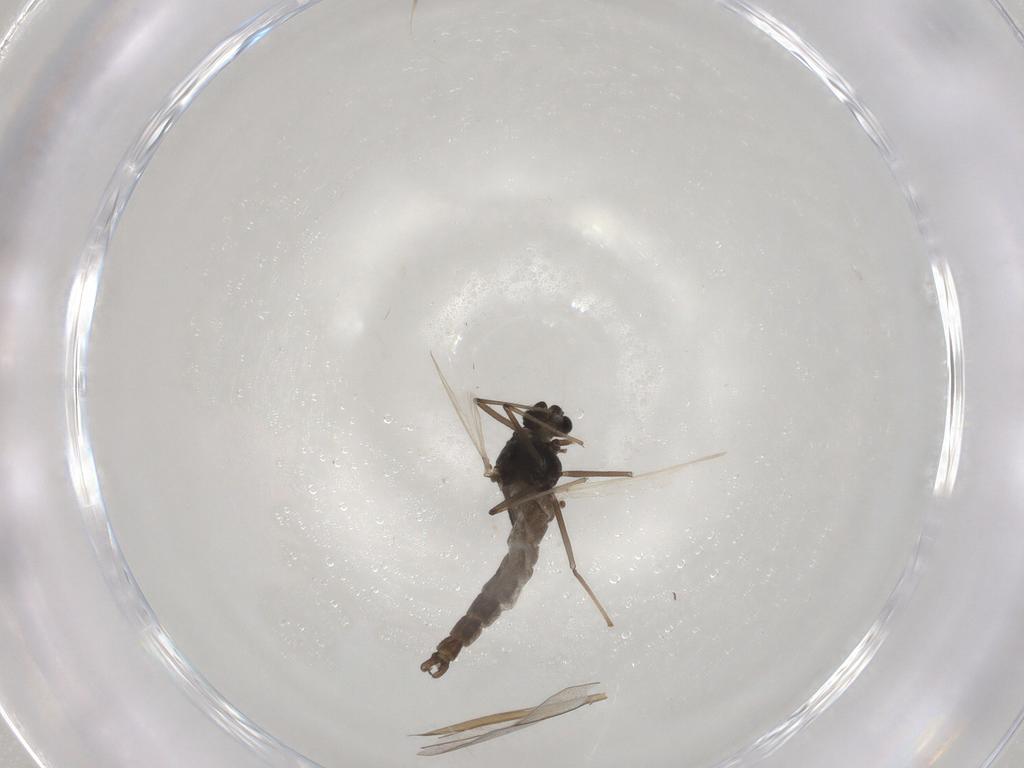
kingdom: Animalia
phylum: Arthropoda
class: Insecta
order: Diptera
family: Chironomidae
